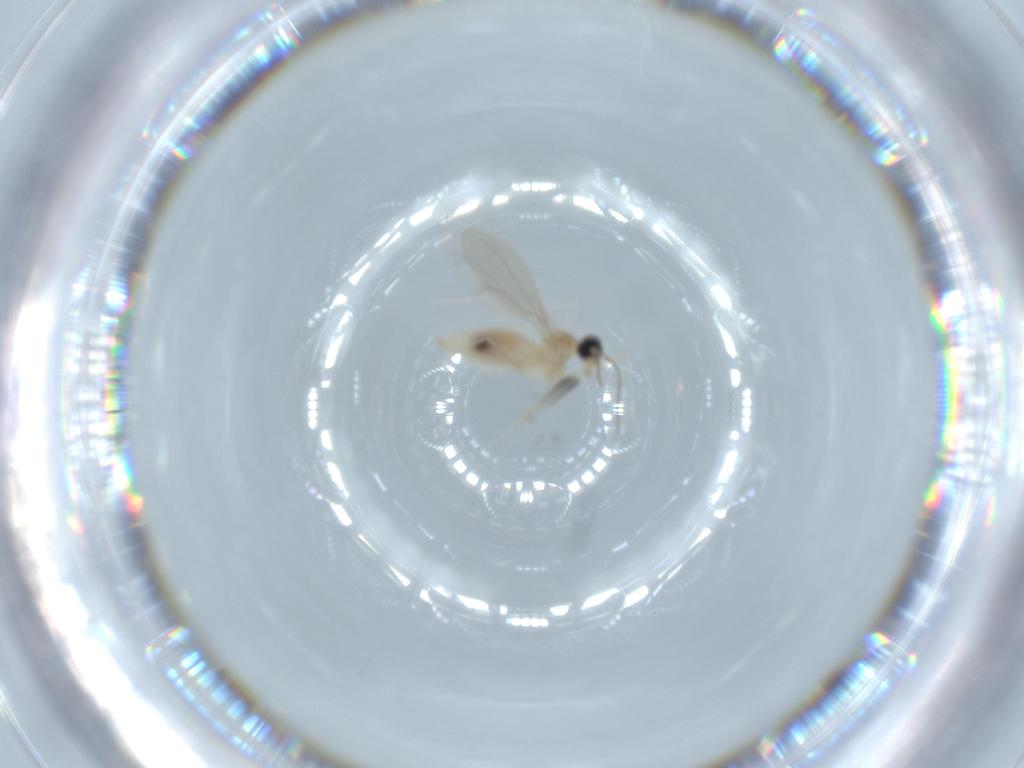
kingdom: Animalia
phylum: Arthropoda
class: Insecta
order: Diptera
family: Cecidomyiidae
